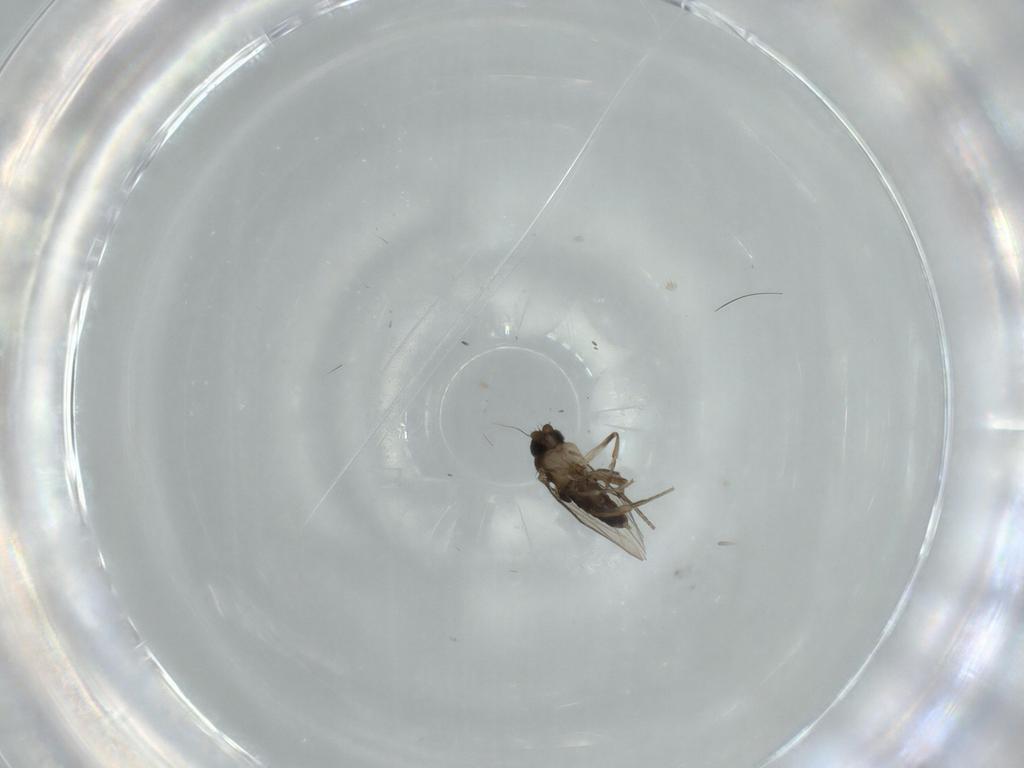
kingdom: Animalia
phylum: Arthropoda
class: Insecta
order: Diptera
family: Phoridae
